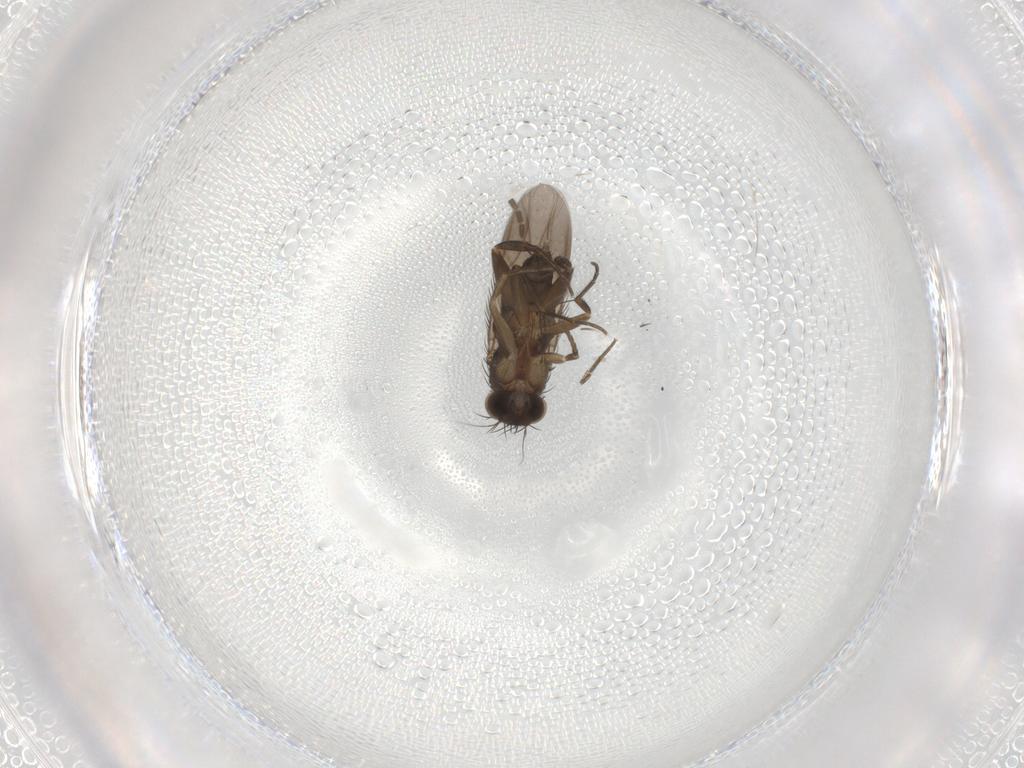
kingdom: Animalia
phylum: Arthropoda
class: Insecta
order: Diptera
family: Phoridae
